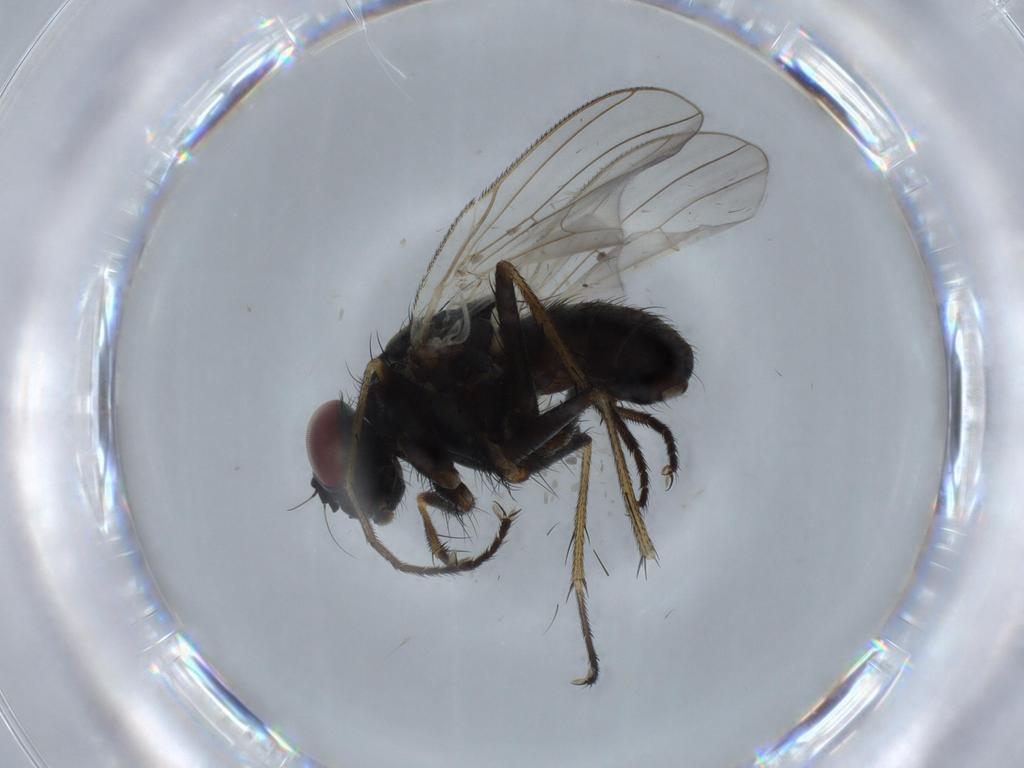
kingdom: Animalia
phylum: Arthropoda
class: Insecta
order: Diptera
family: Muscidae
